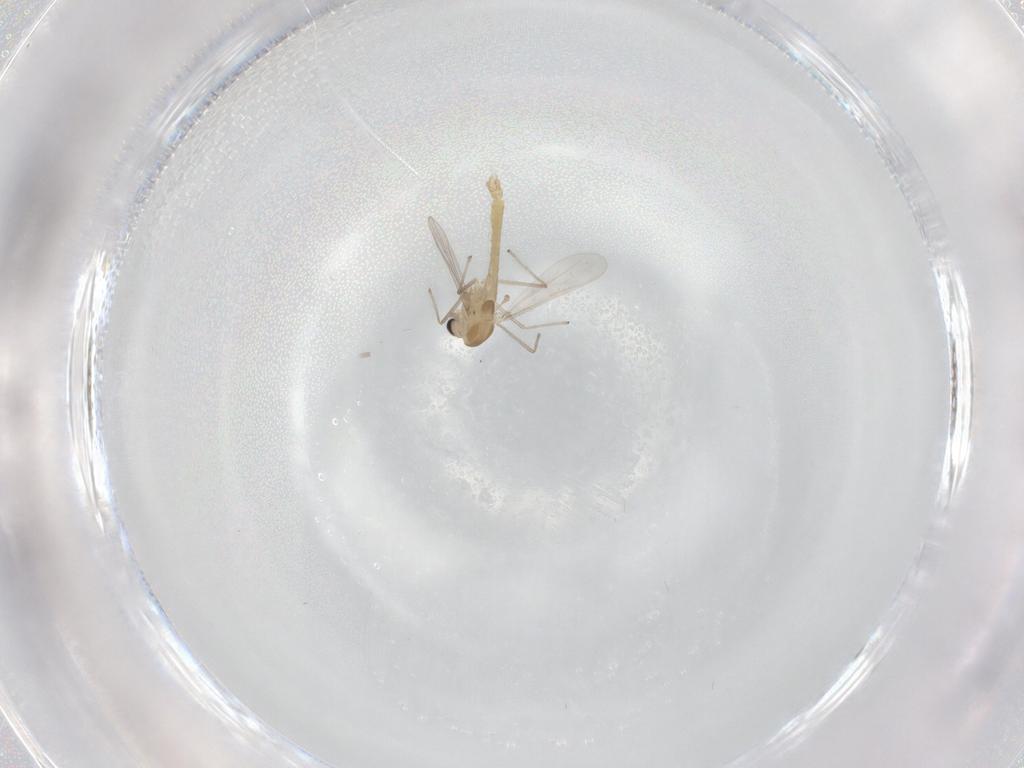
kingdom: Animalia
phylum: Arthropoda
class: Insecta
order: Diptera
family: Chironomidae
